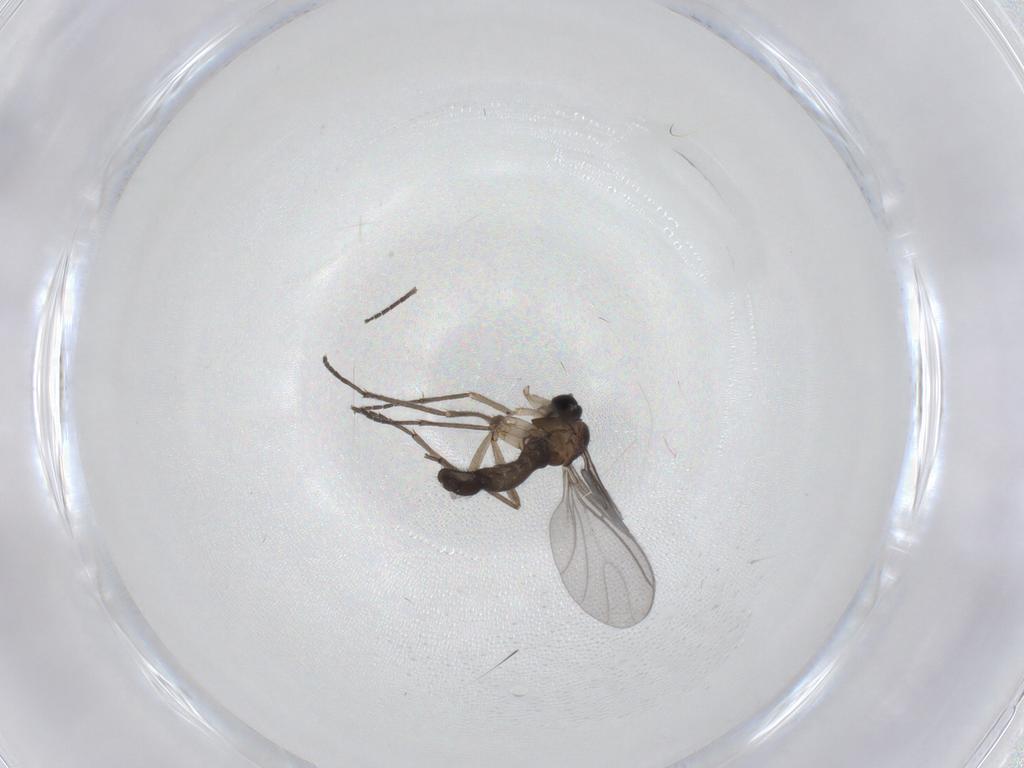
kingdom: Animalia
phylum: Arthropoda
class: Insecta
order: Diptera
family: Sciaridae
